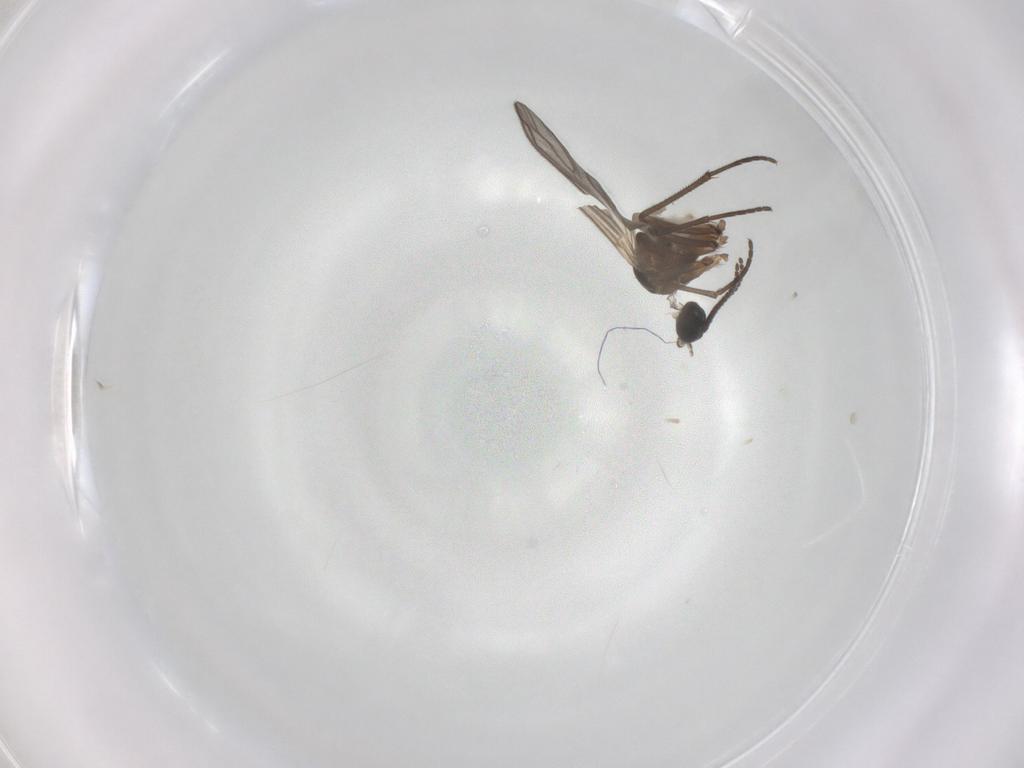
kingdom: Animalia
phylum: Arthropoda
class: Insecta
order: Diptera
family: Sciaridae
